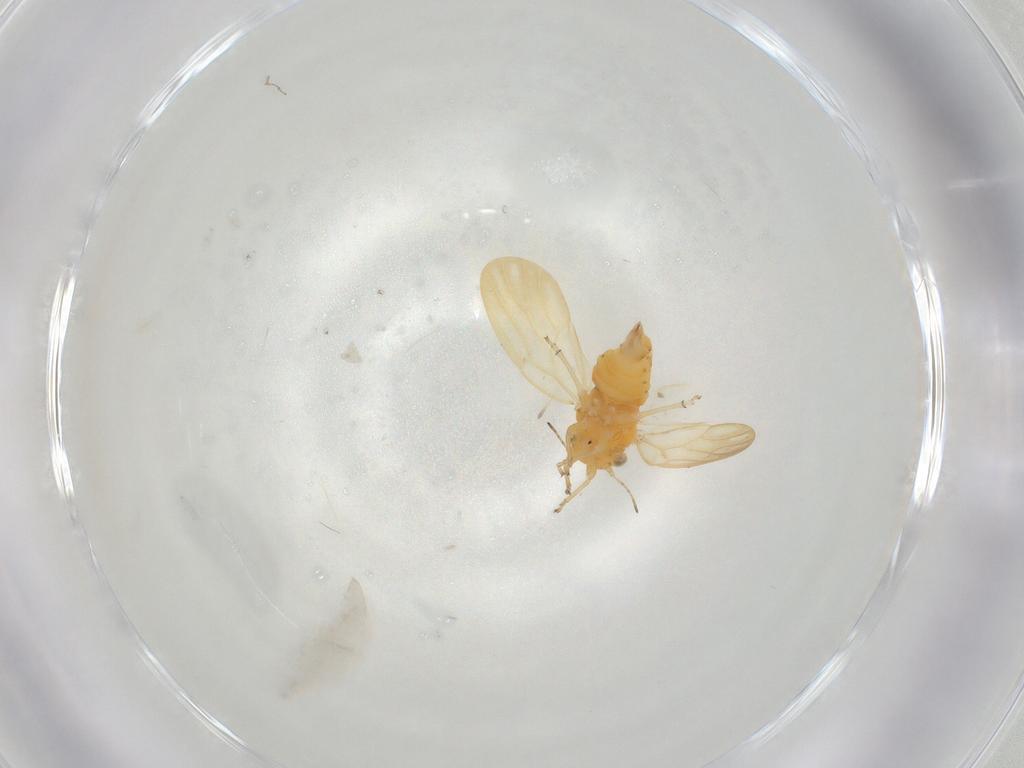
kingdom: Animalia
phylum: Arthropoda
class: Insecta
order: Hemiptera
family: Liviidae
